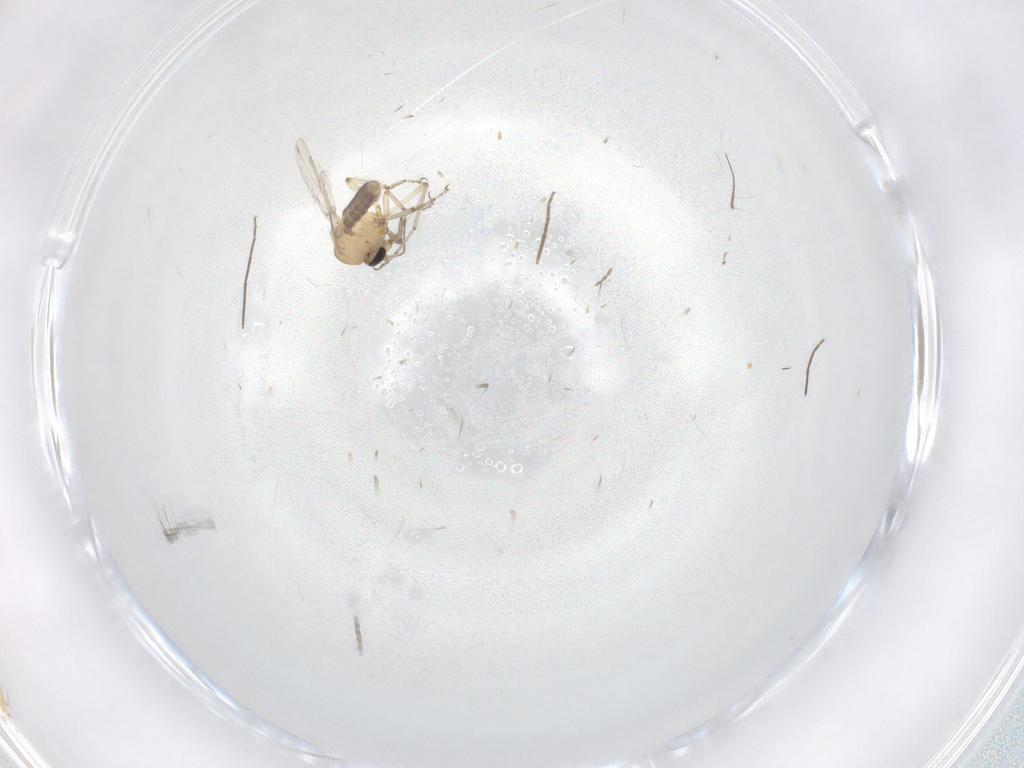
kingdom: Animalia
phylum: Arthropoda
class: Insecta
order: Diptera
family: Ceratopogonidae
